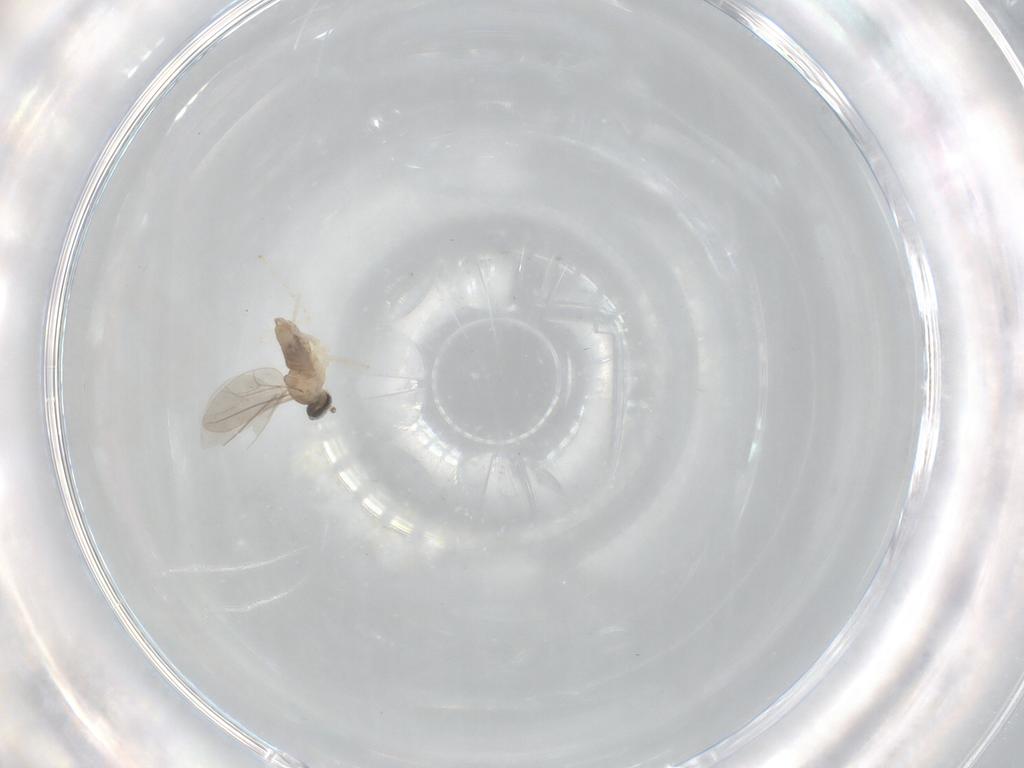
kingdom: Animalia
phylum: Arthropoda
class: Insecta
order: Diptera
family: Cecidomyiidae
